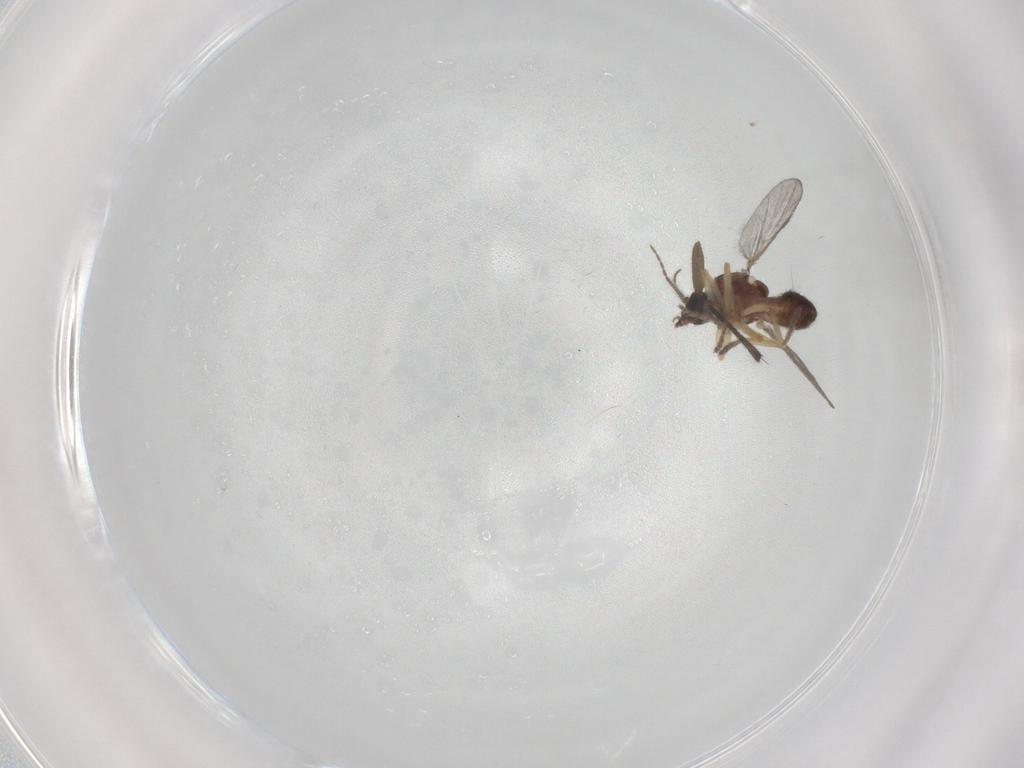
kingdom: Animalia
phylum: Arthropoda
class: Insecta
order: Diptera
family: Ceratopogonidae
